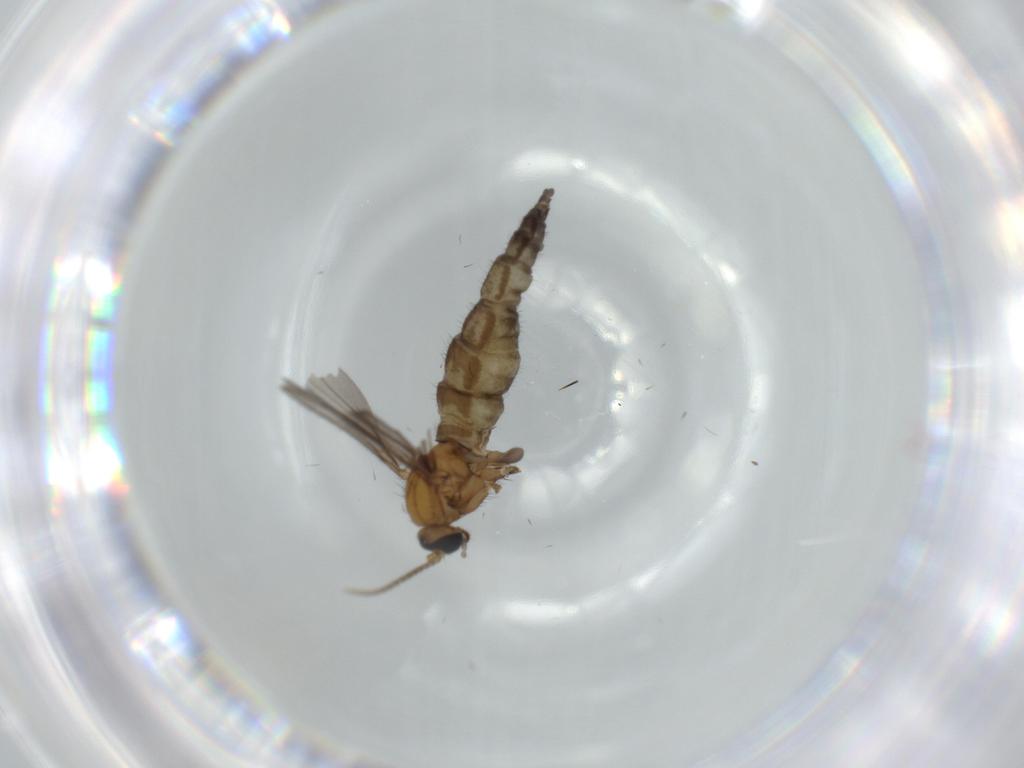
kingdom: Animalia
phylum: Arthropoda
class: Insecta
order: Diptera
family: Sciaridae
